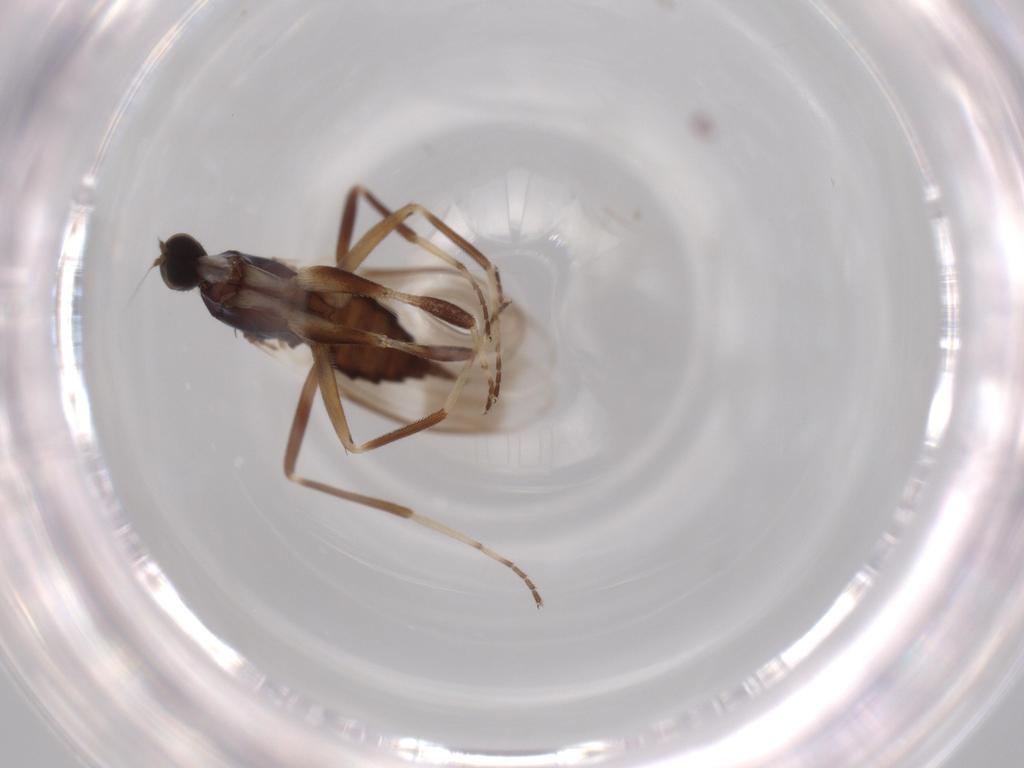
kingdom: Animalia
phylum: Arthropoda
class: Insecta
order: Diptera
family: Hybotidae
